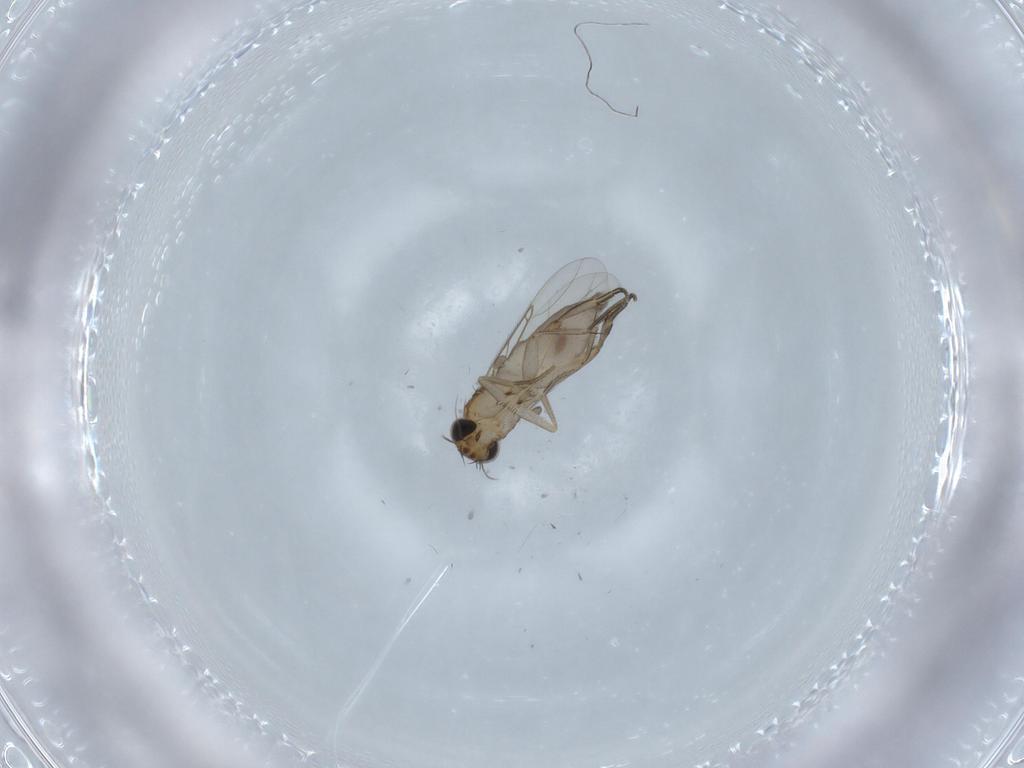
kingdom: Animalia
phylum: Arthropoda
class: Insecta
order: Diptera
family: Phoridae
